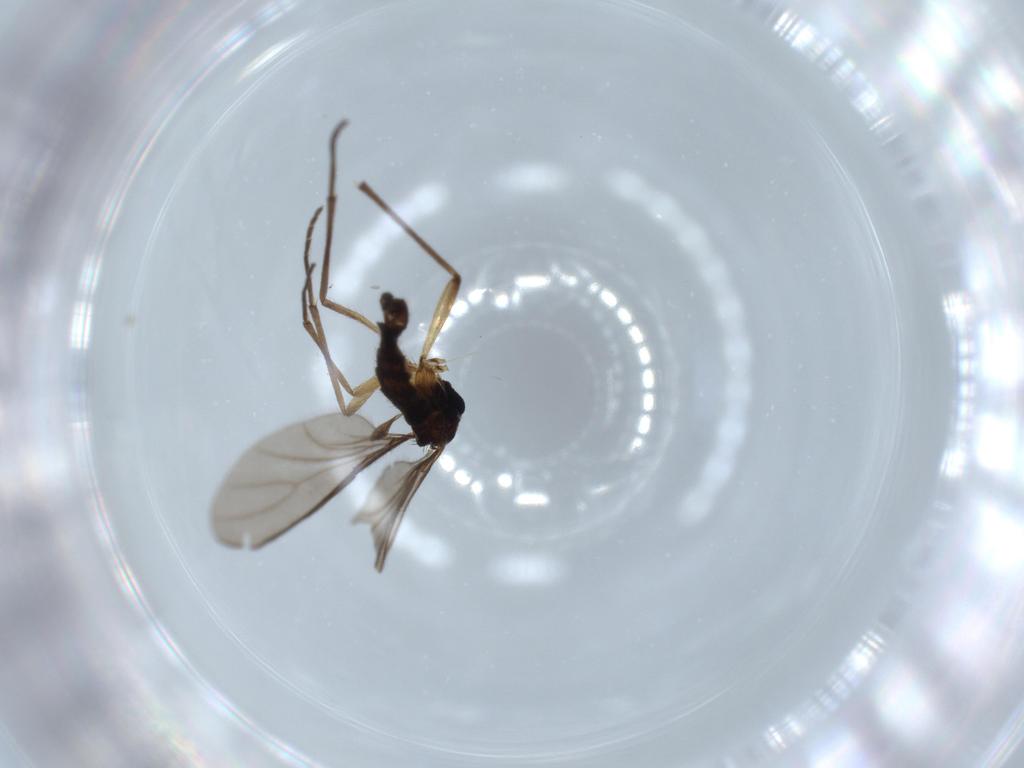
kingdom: Animalia
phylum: Arthropoda
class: Insecta
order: Diptera
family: Sciaridae
